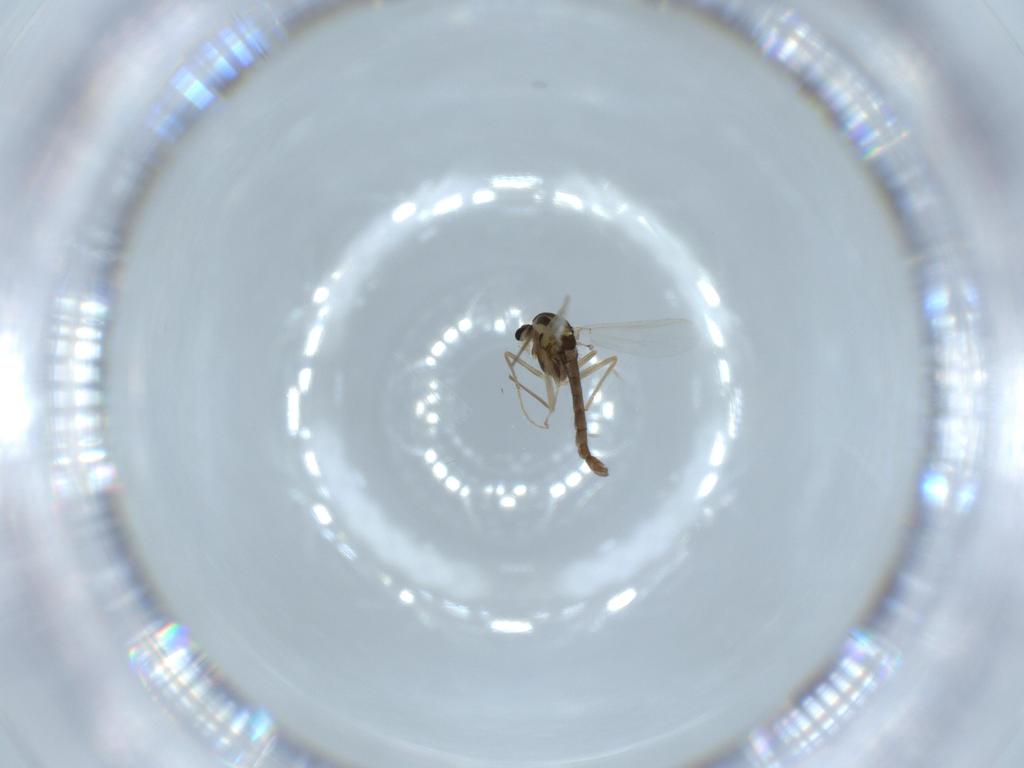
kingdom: Animalia
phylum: Arthropoda
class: Insecta
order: Diptera
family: Chironomidae
